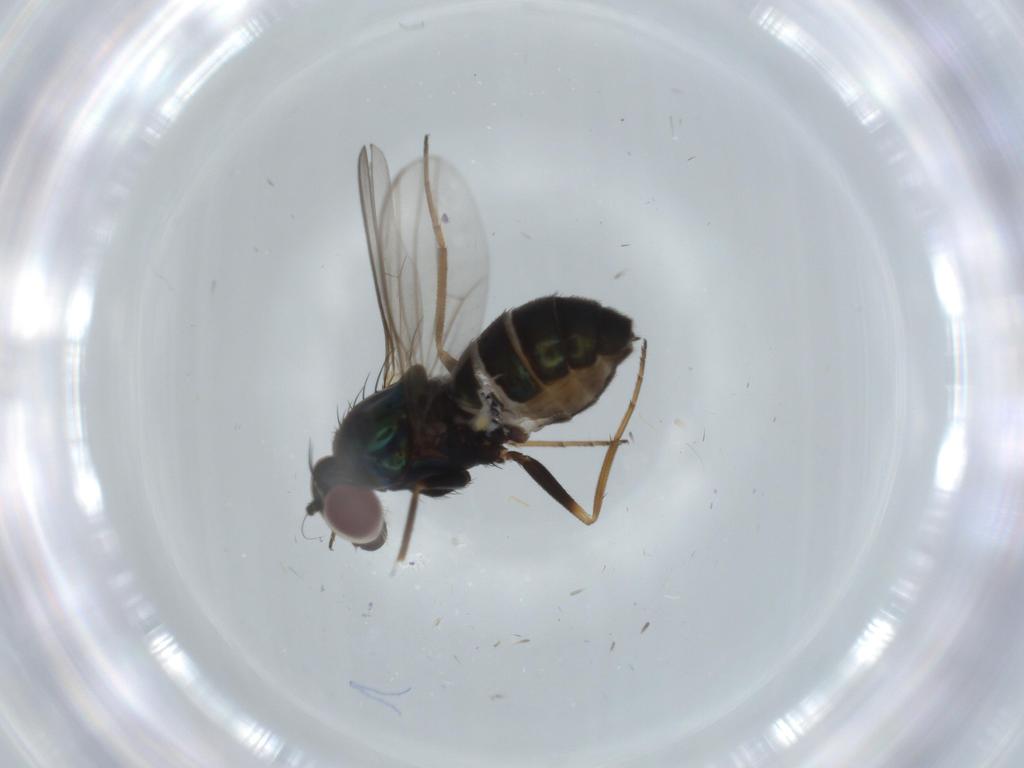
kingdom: Animalia
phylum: Arthropoda
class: Insecta
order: Diptera
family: Dolichopodidae
